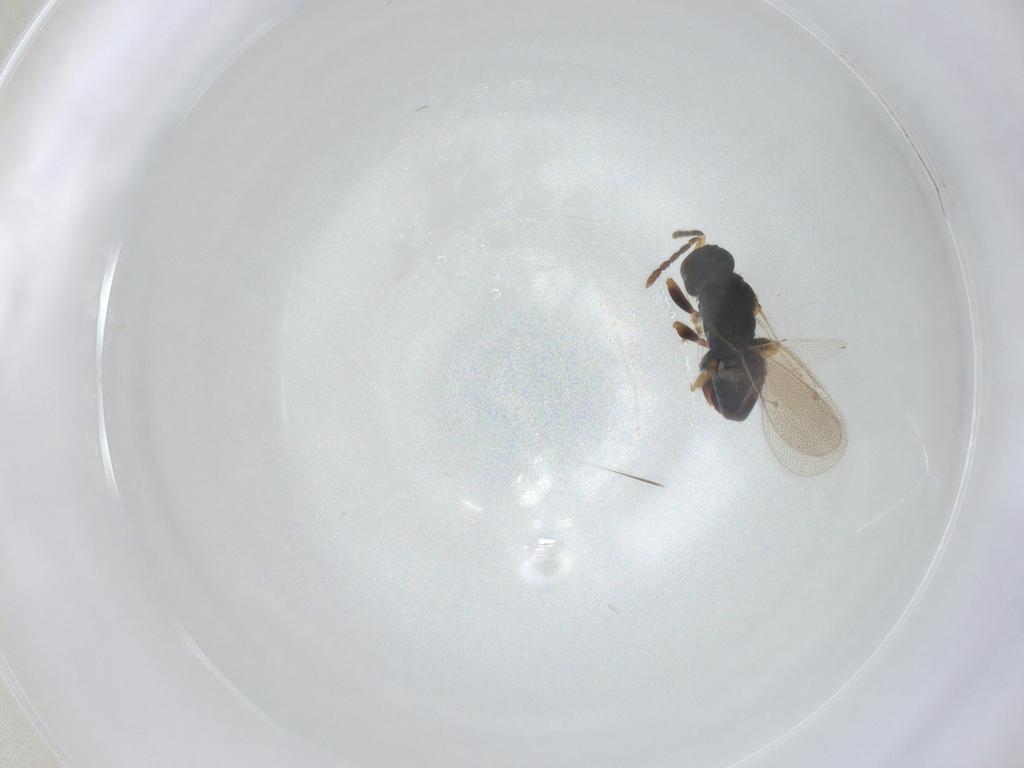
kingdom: Animalia
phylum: Arthropoda
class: Insecta
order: Hymenoptera
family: Eulophidae
